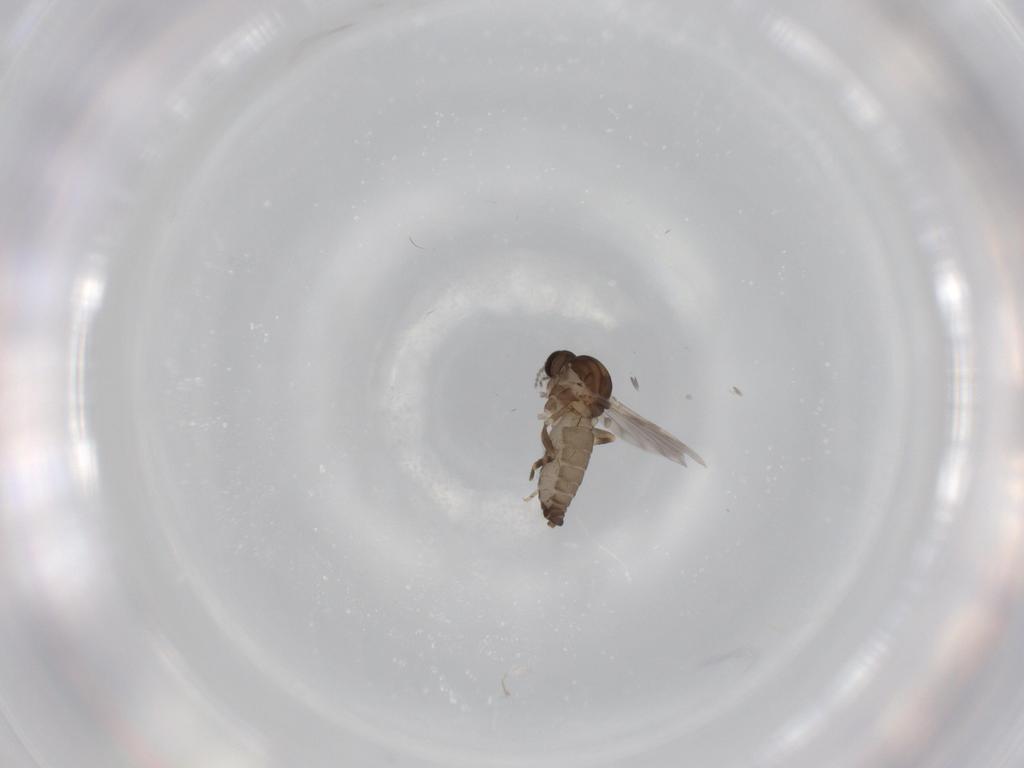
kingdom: Animalia
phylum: Arthropoda
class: Insecta
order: Diptera
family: Ceratopogonidae
